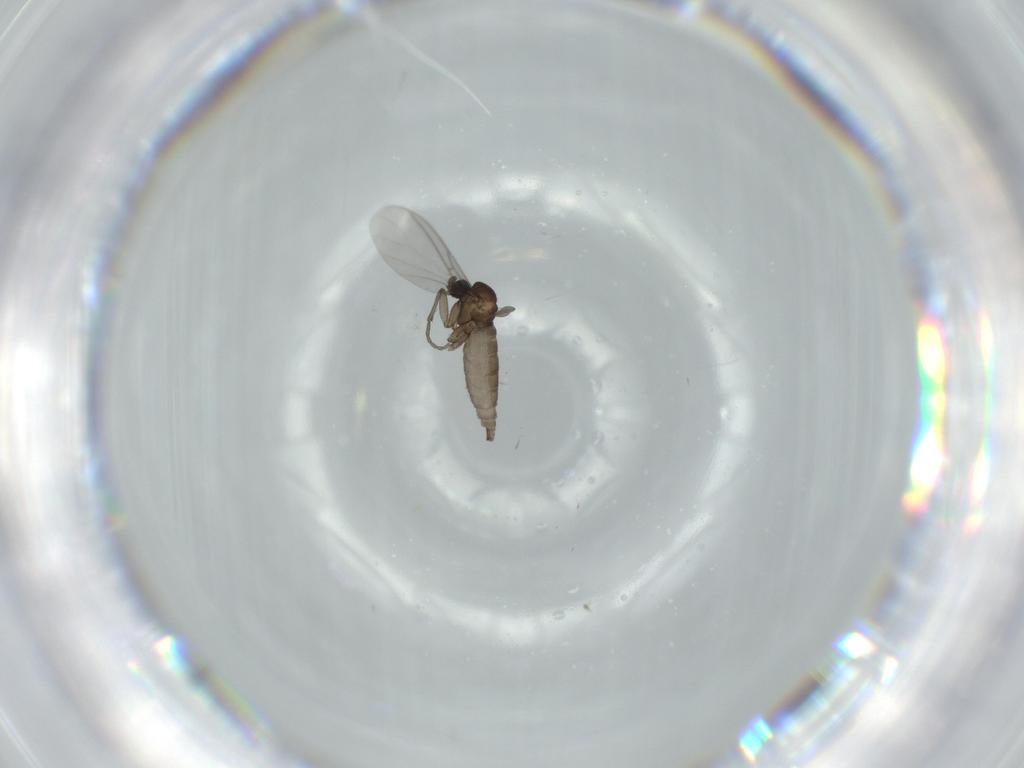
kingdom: Animalia
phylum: Arthropoda
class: Insecta
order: Diptera
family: Sciaridae
